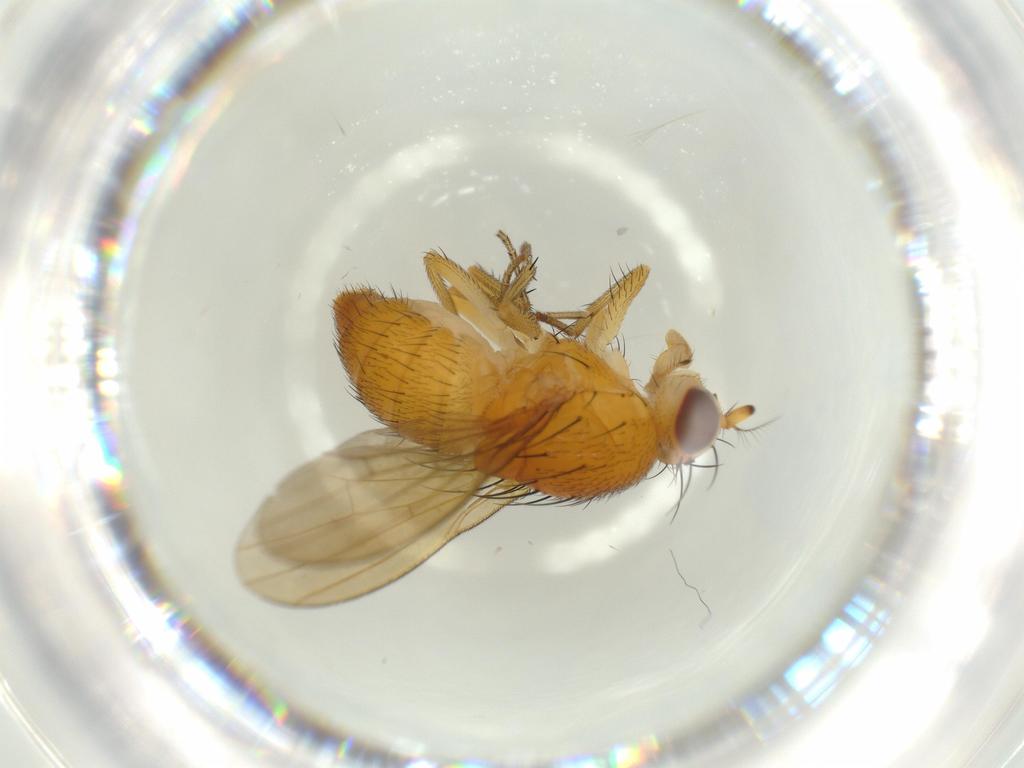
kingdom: Animalia
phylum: Arthropoda
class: Insecta
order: Diptera
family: Lauxaniidae
